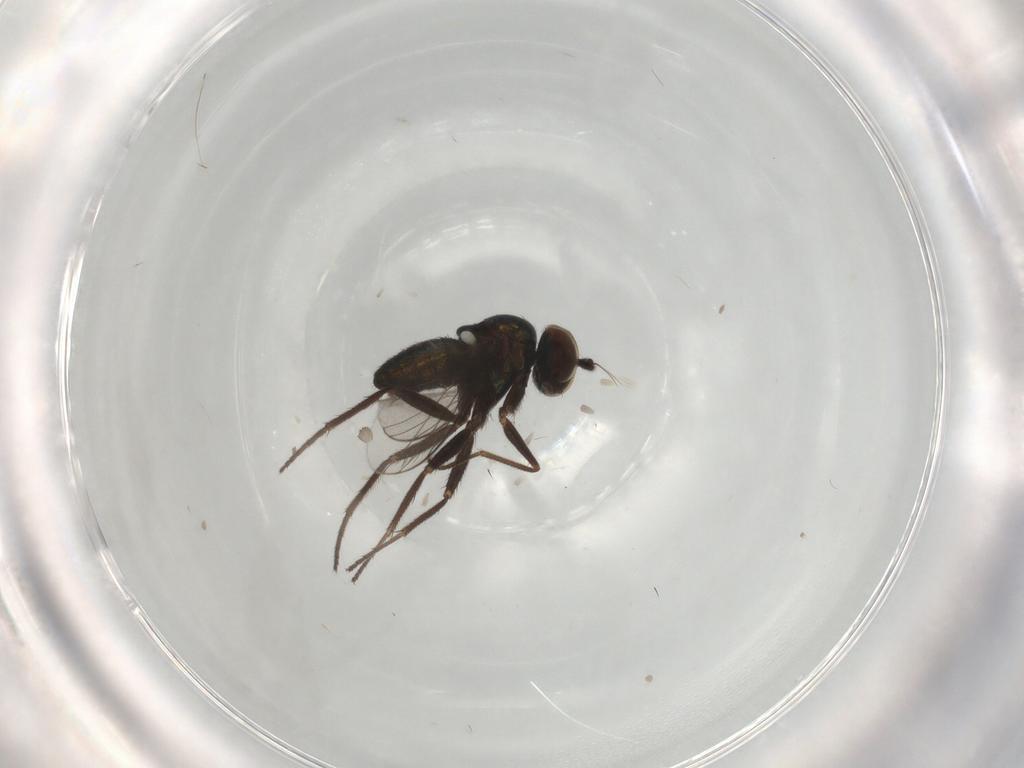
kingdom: Animalia
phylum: Arthropoda
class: Insecta
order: Diptera
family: Dolichopodidae
